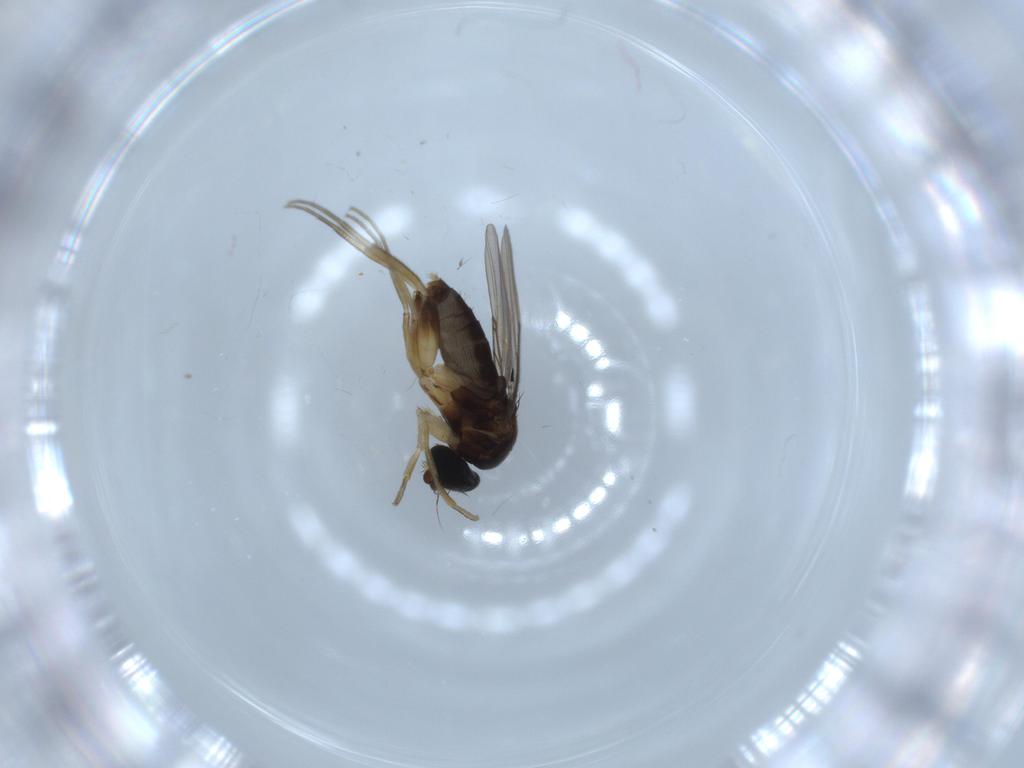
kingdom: Animalia
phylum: Arthropoda
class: Insecta
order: Diptera
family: Phoridae
